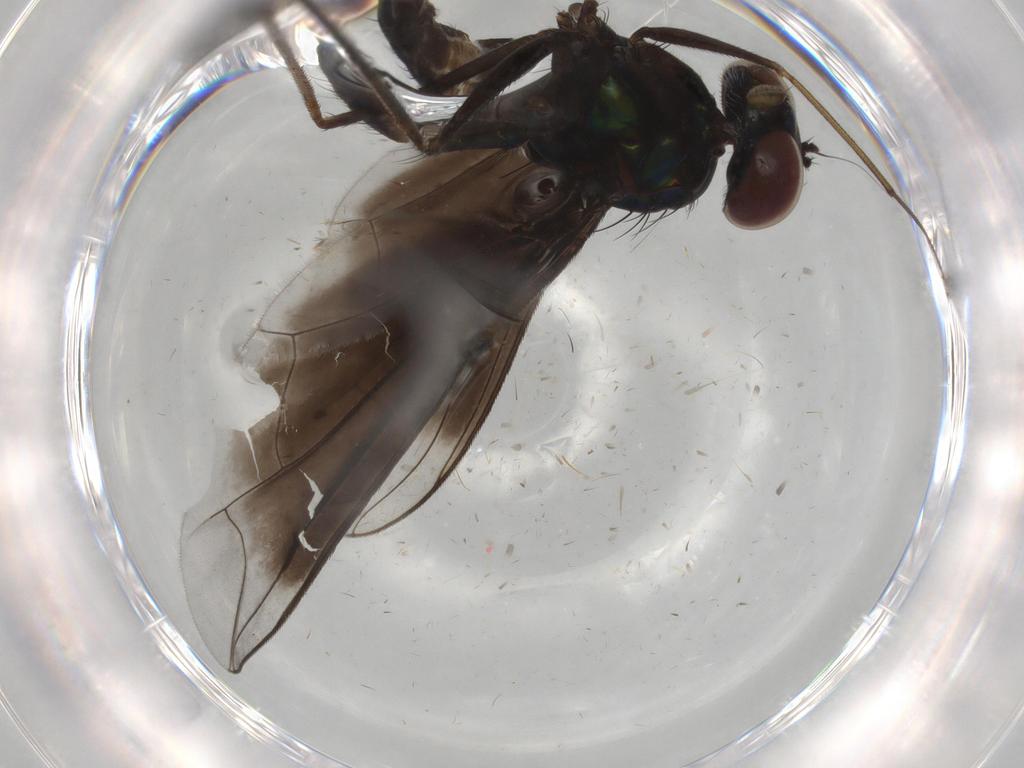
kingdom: Animalia
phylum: Arthropoda
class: Insecta
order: Diptera
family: Dolichopodidae
